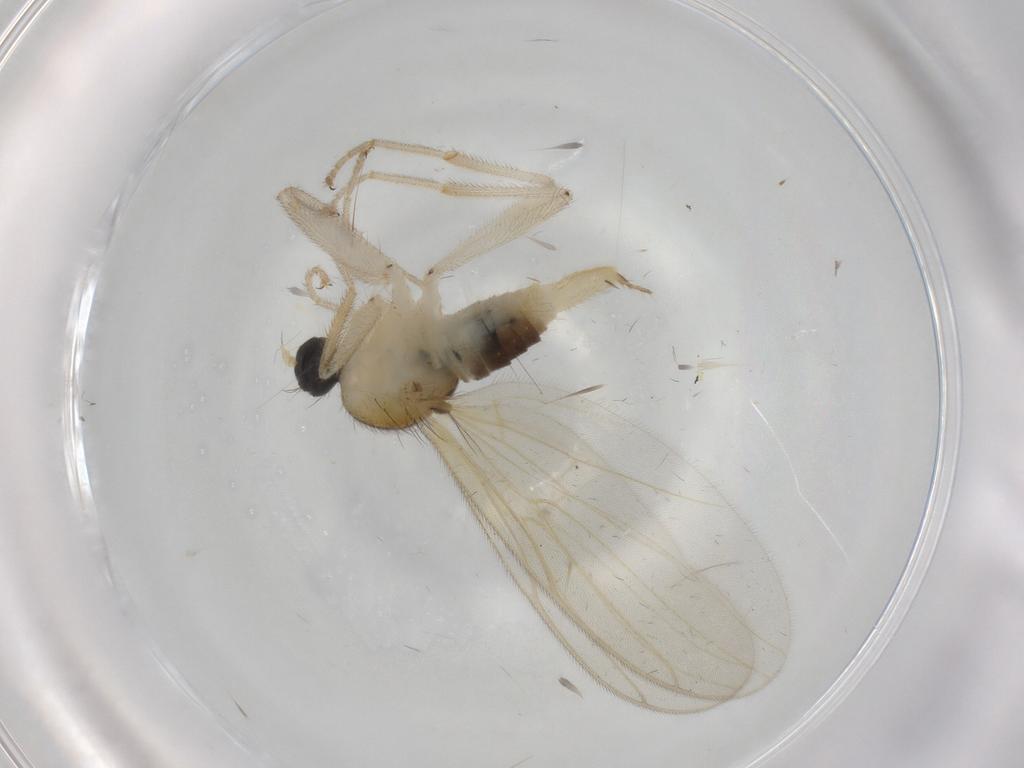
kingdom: Animalia
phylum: Arthropoda
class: Insecta
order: Diptera
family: Hybotidae
